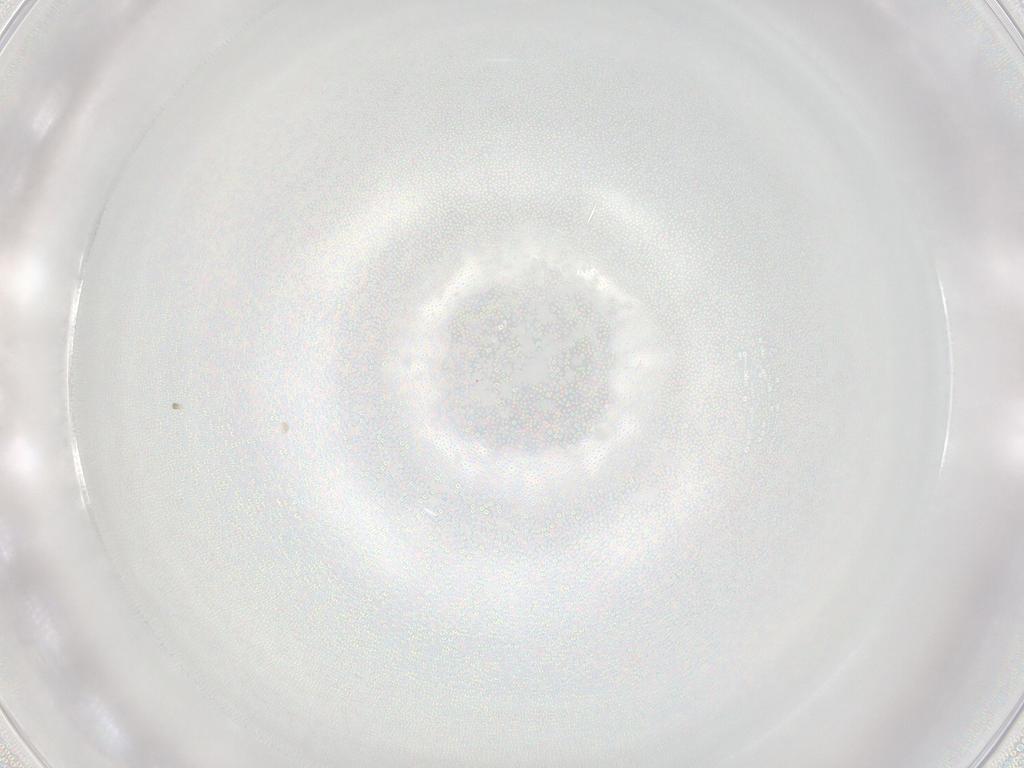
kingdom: Animalia
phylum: Arthropoda
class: Collembola
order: Entomobryomorpha
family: Entomobryidae
